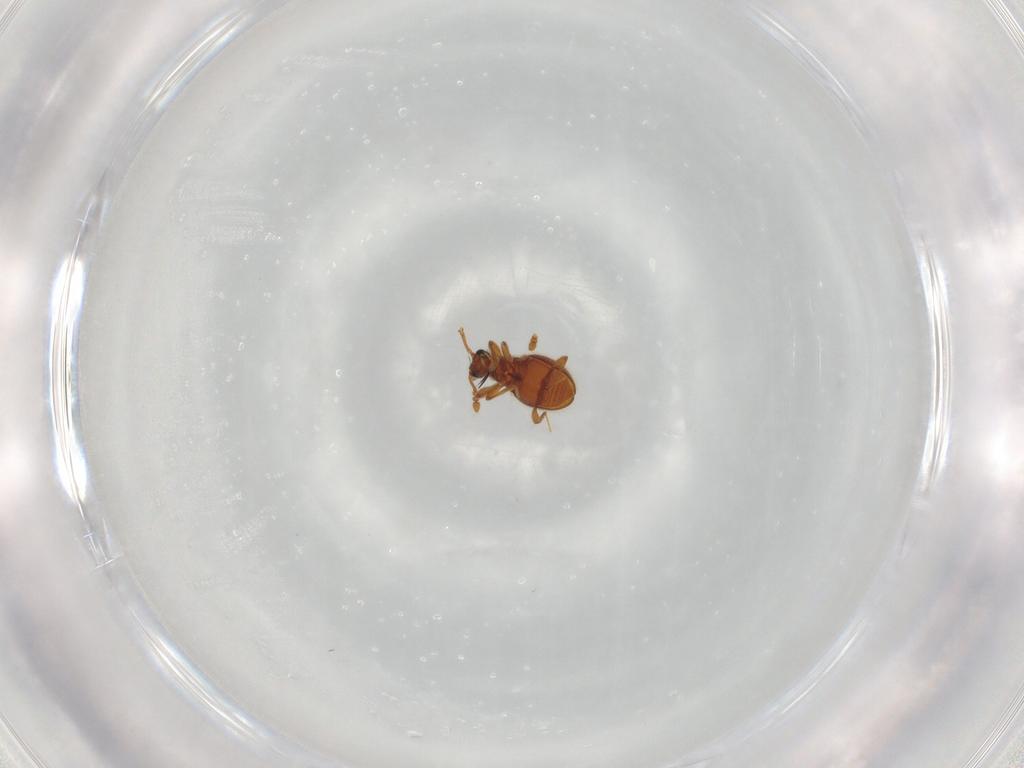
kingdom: Animalia
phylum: Arthropoda
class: Insecta
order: Coleoptera
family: Staphylinidae
